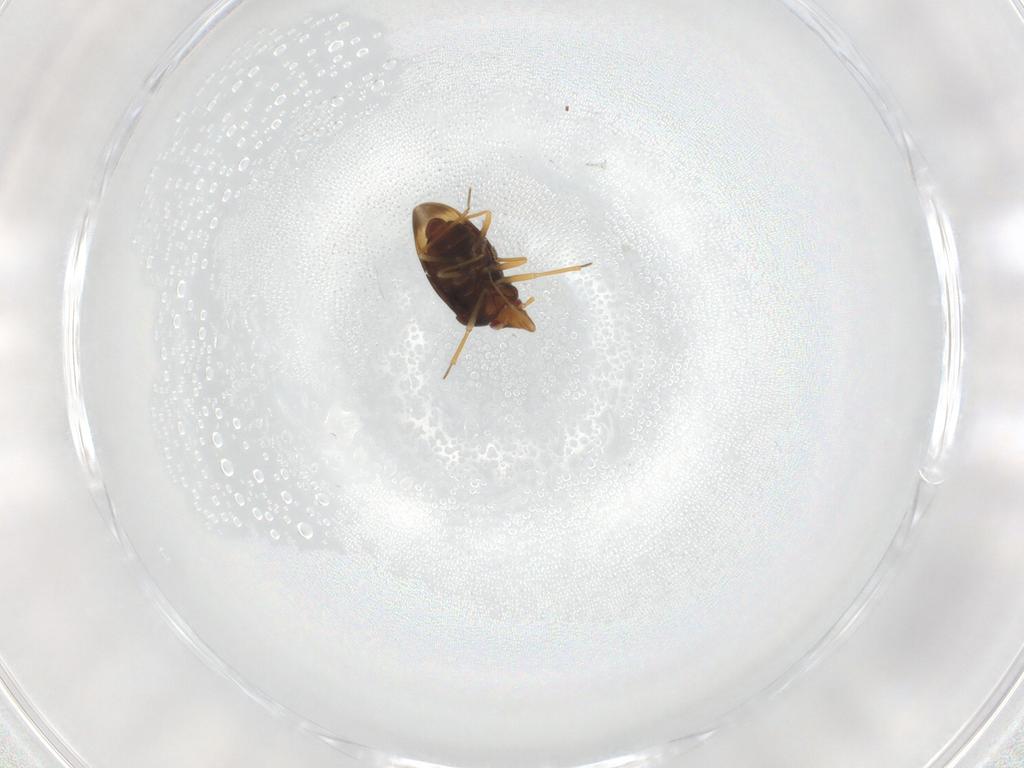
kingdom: Animalia
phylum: Arthropoda
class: Insecta
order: Hemiptera
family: Schizopteridae
